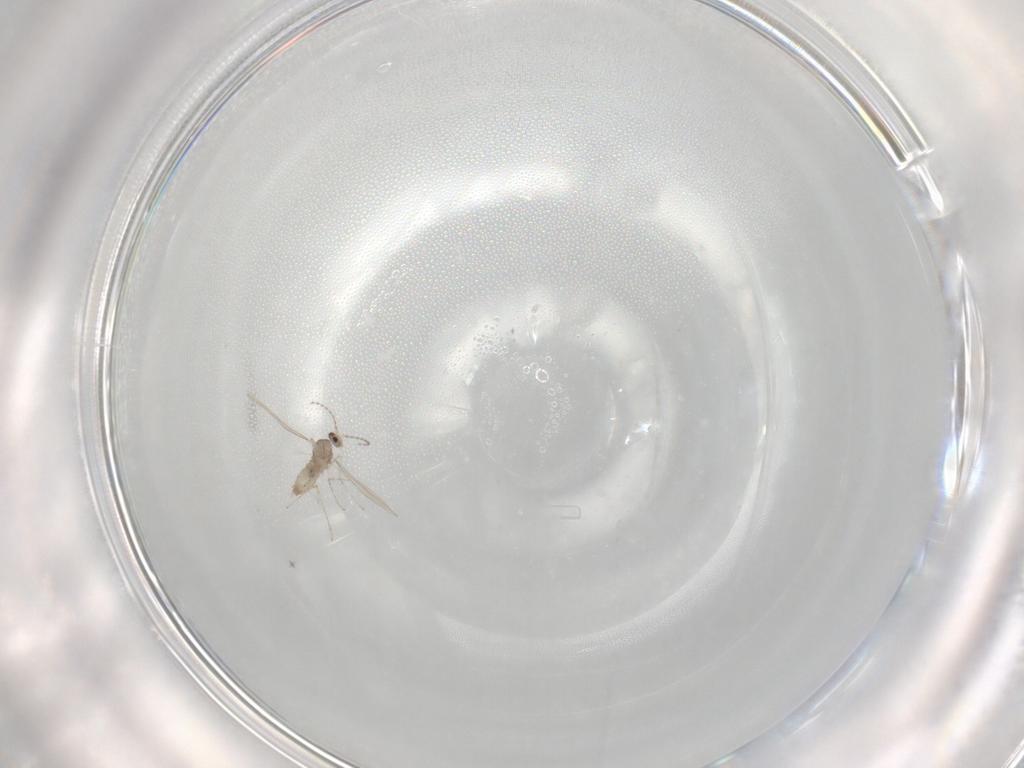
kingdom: Animalia
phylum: Arthropoda
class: Insecta
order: Diptera
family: Cecidomyiidae
